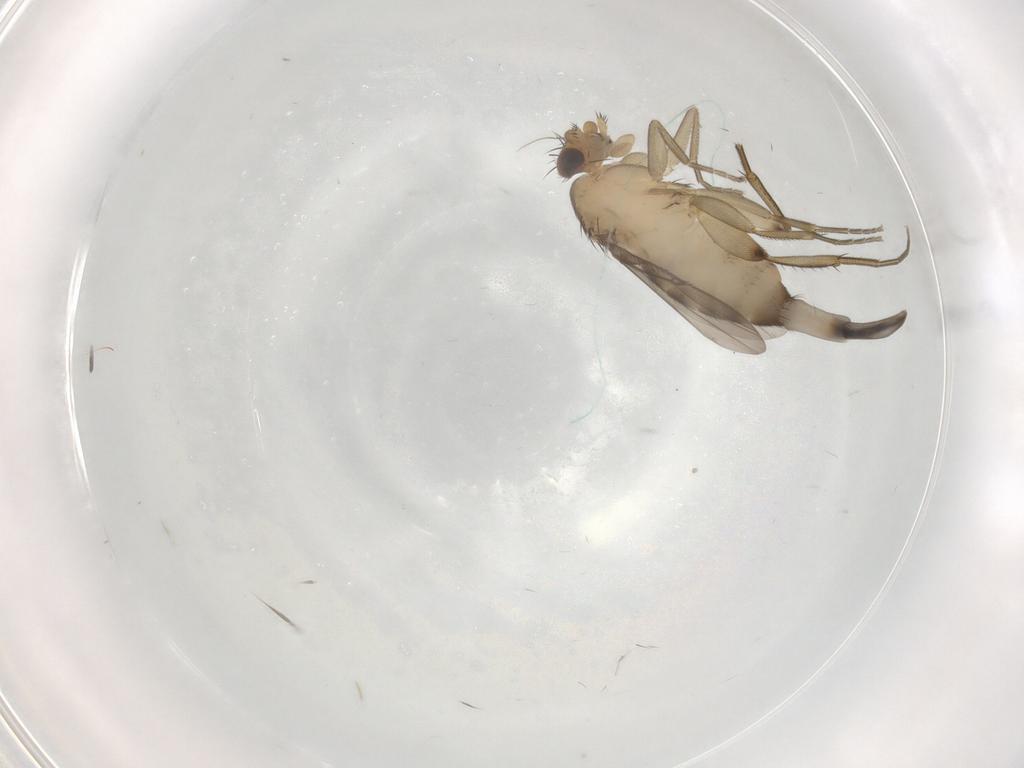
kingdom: Animalia
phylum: Arthropoda
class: Insecta
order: Diptera
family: Phoridae
